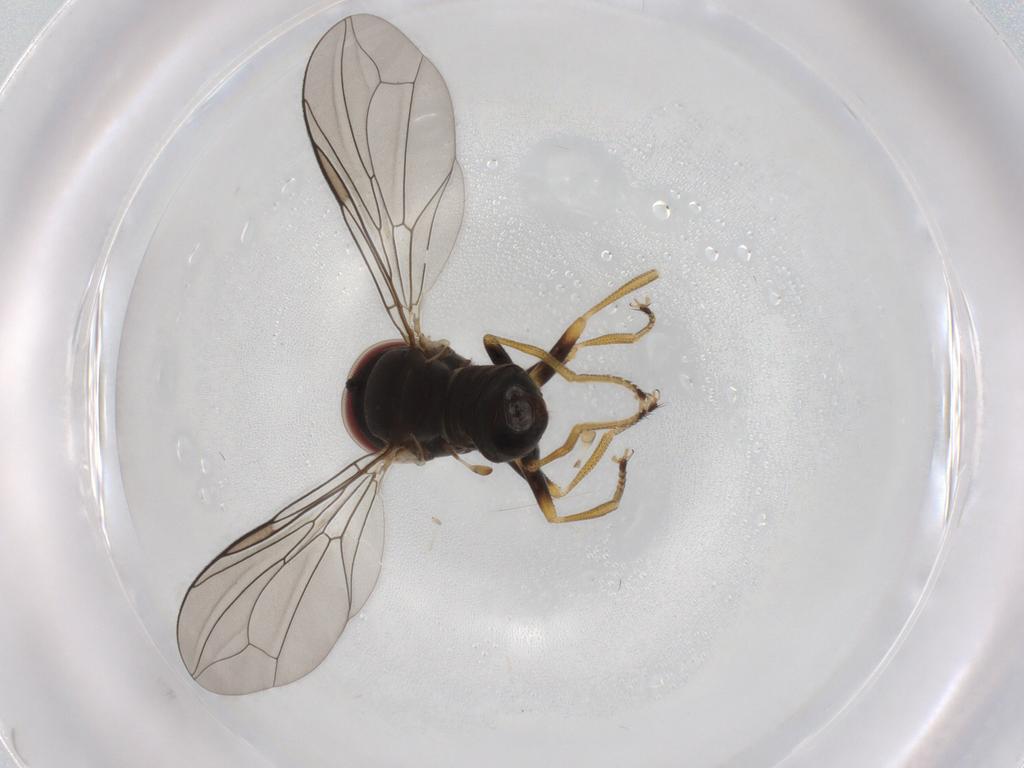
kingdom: Animalia
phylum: Arthropoda
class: Insecta
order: Diptera
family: Pipunculidae
